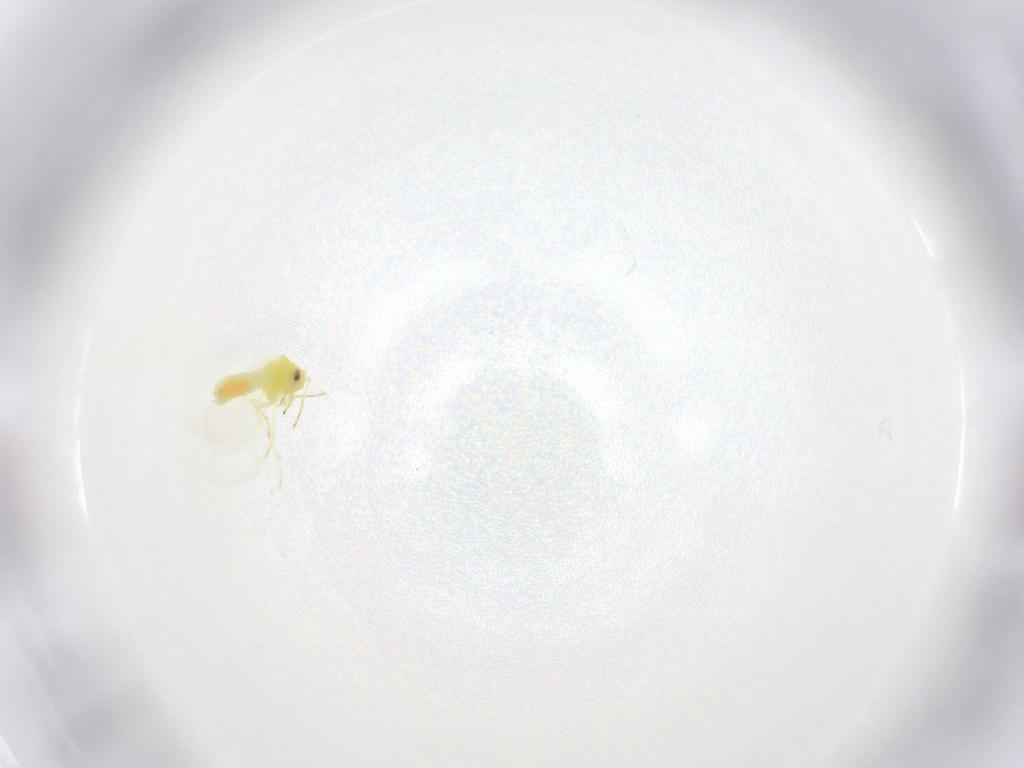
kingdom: Animalia
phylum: Arthropoda
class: Insecta
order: Hemiptera
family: Aleyrodidae
